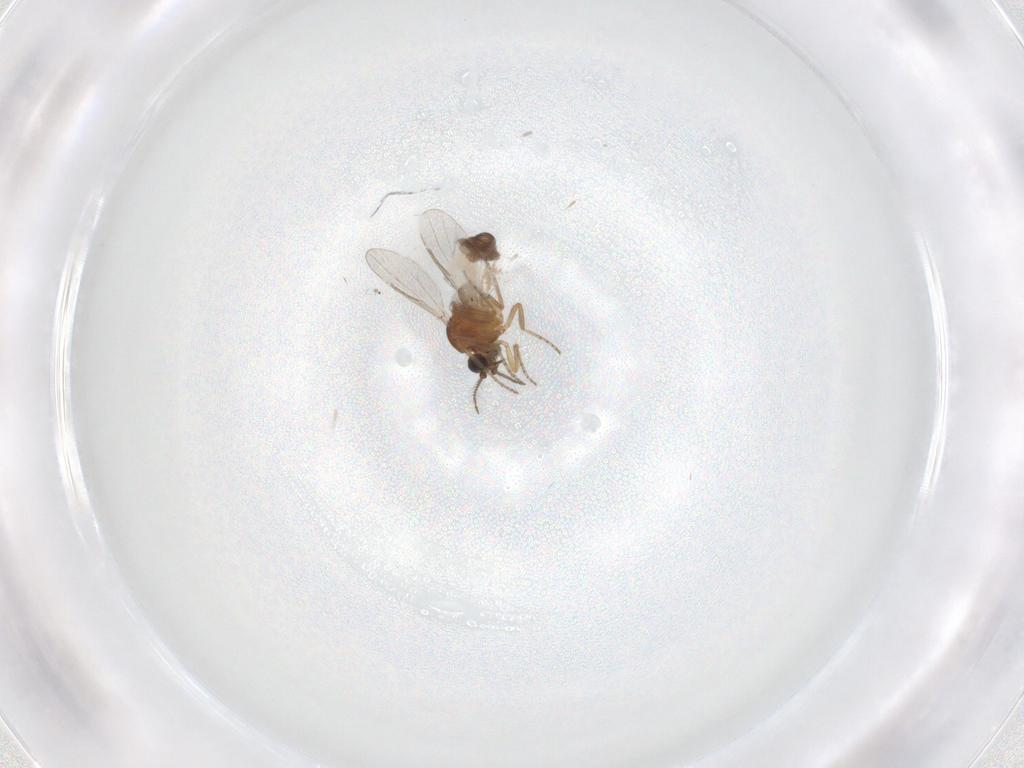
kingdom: Animalia
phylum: Arthropoda
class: Insecta
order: Diptera
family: Psychodidae
